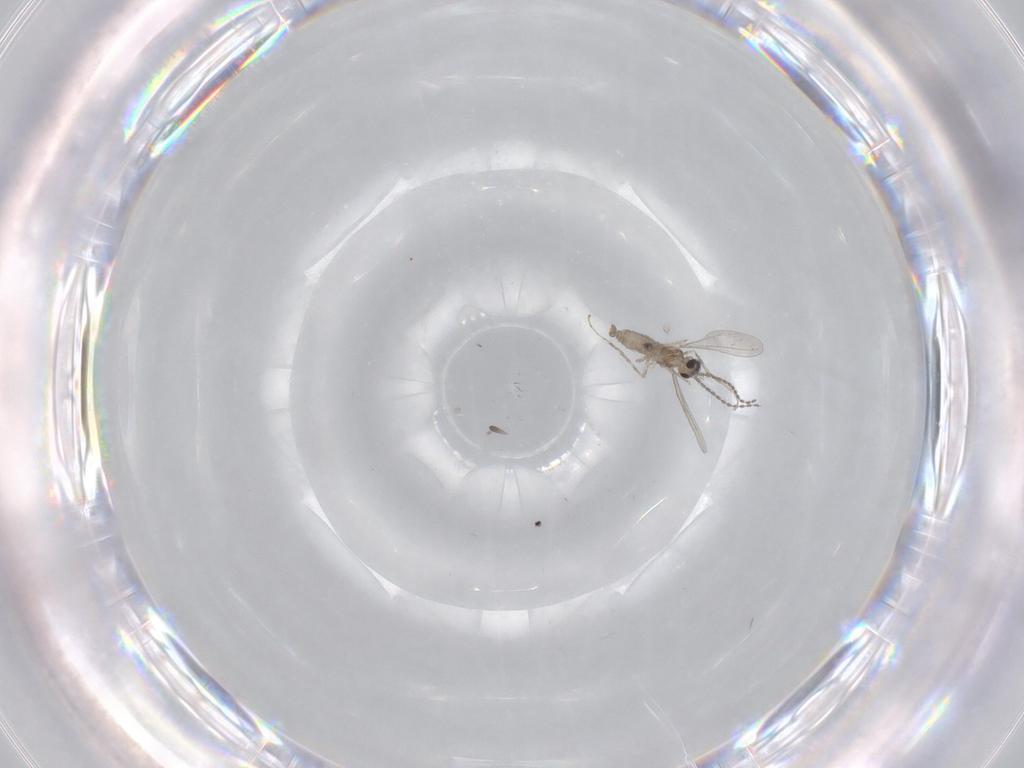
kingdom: Animalia
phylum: Arthropoda
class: Insecta
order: Diptera
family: Chironomidae
